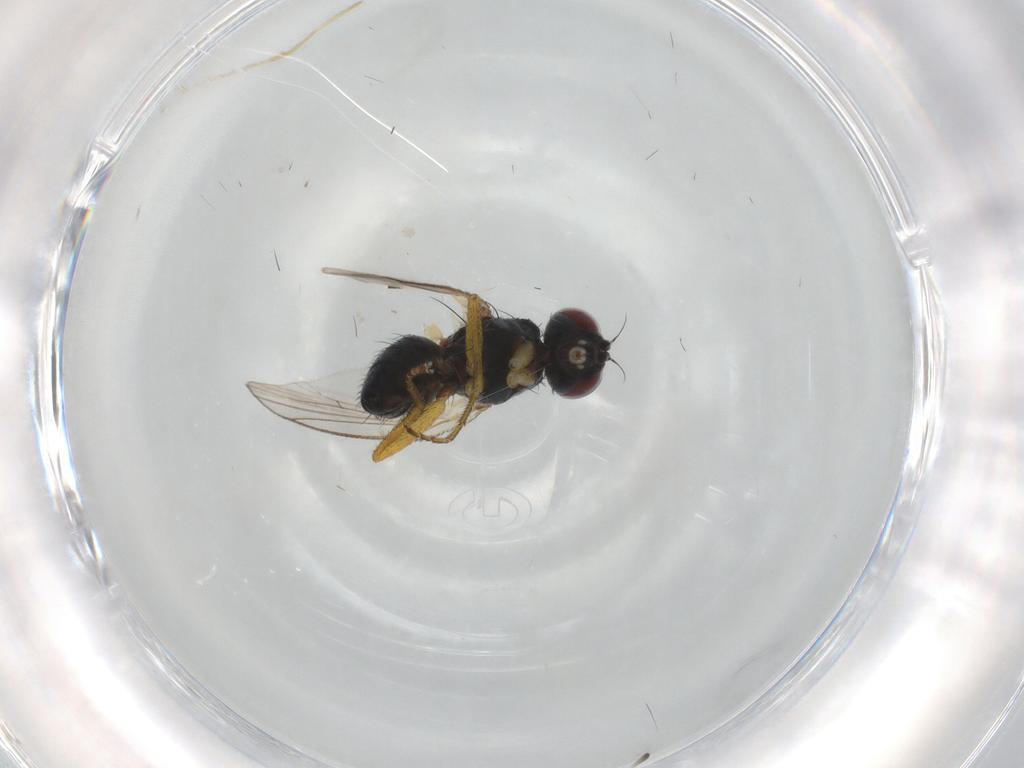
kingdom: Animalia
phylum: Arthropoda
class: Insecta
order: Diptera
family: Muscidae
